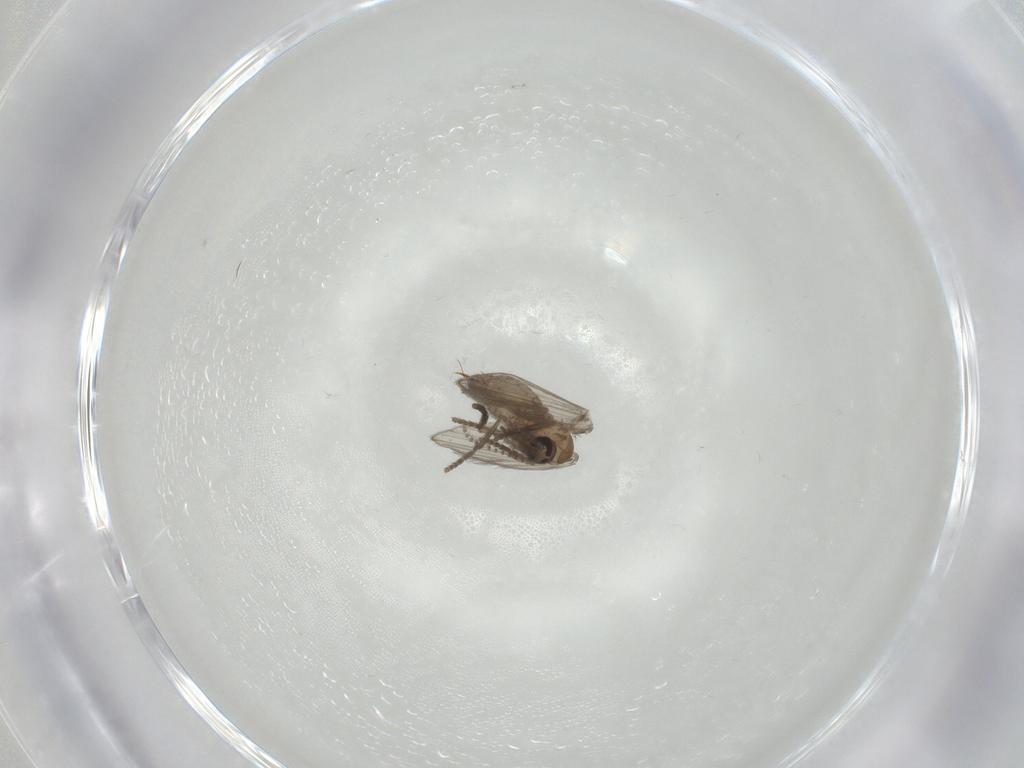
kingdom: Animalia
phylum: Arthropoda
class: Insecta
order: Diptera
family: Psychodidae
